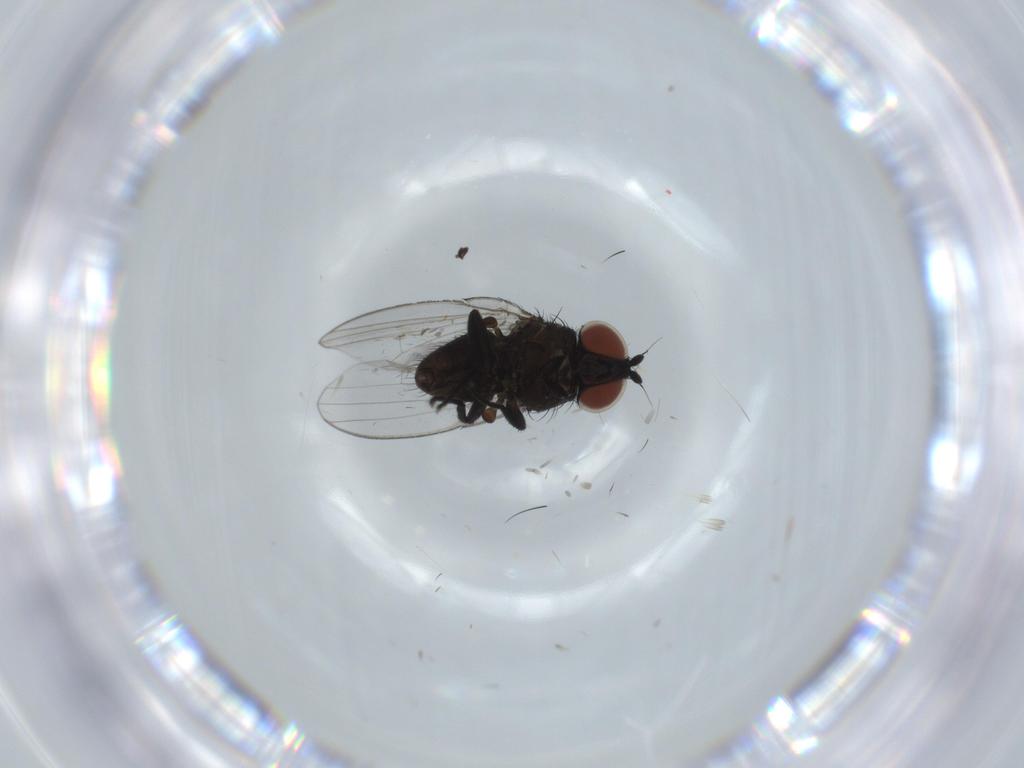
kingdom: Animalia
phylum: Arthropoda
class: Insecta
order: Diptera
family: Milichiidae
